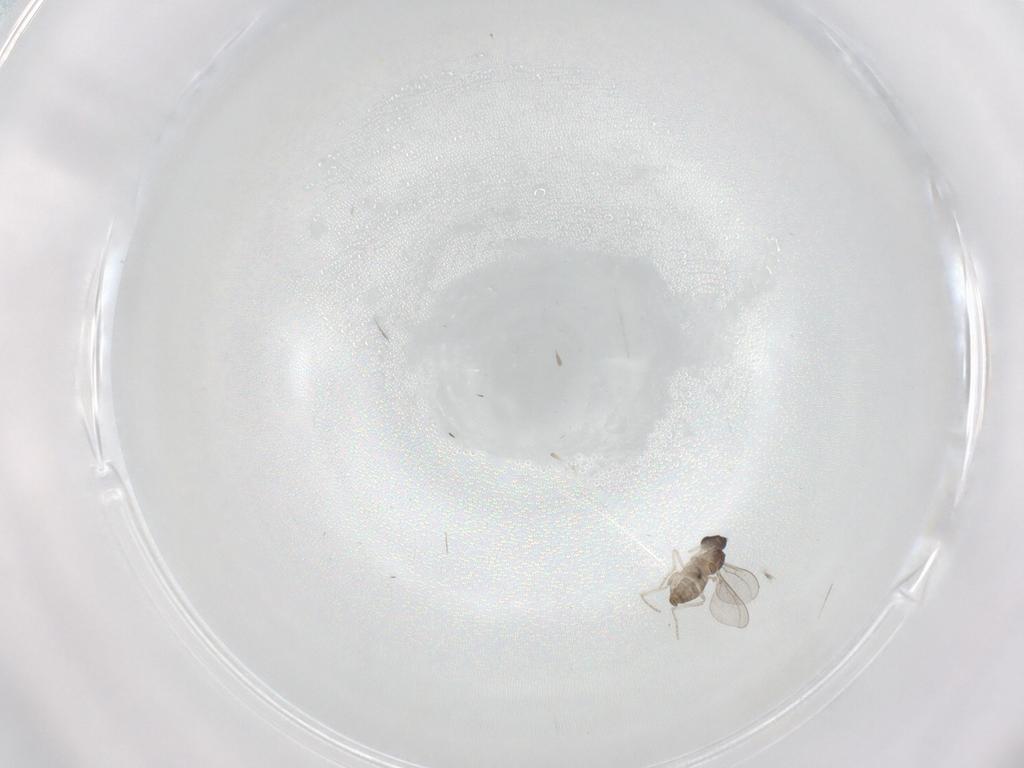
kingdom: Animalia
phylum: Arthropoda
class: Insecta
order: Diptera
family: Cecidomyiidae
